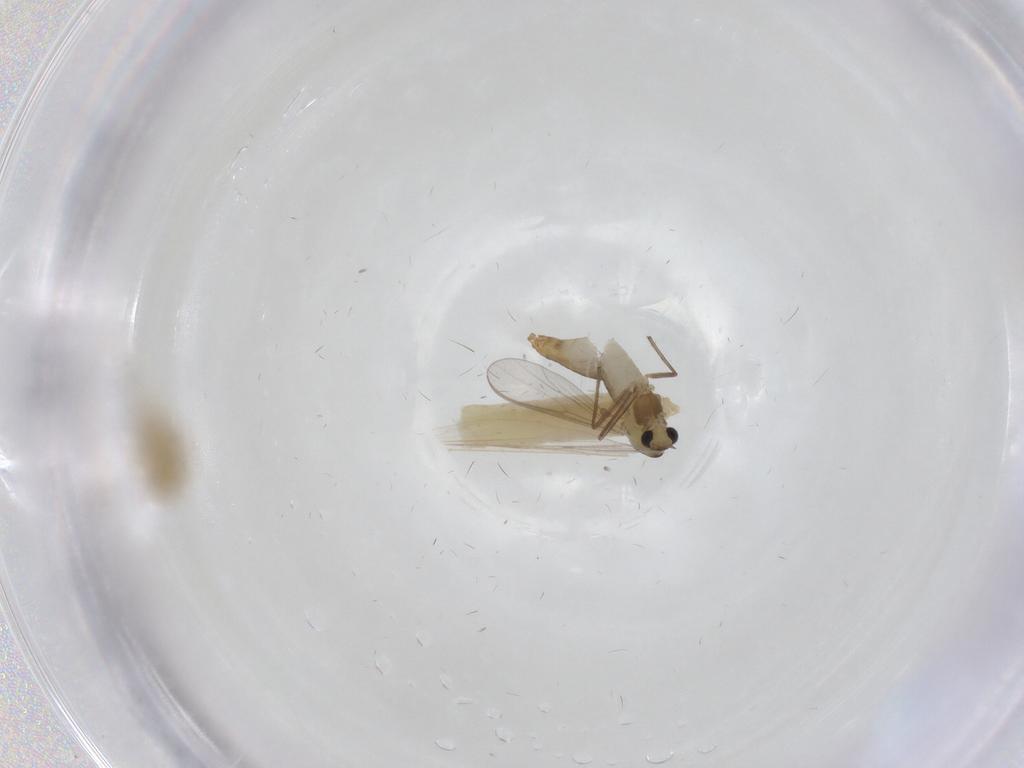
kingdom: Animalia
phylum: Arthropoda
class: Insecta
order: Diptera
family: Chironomidae
